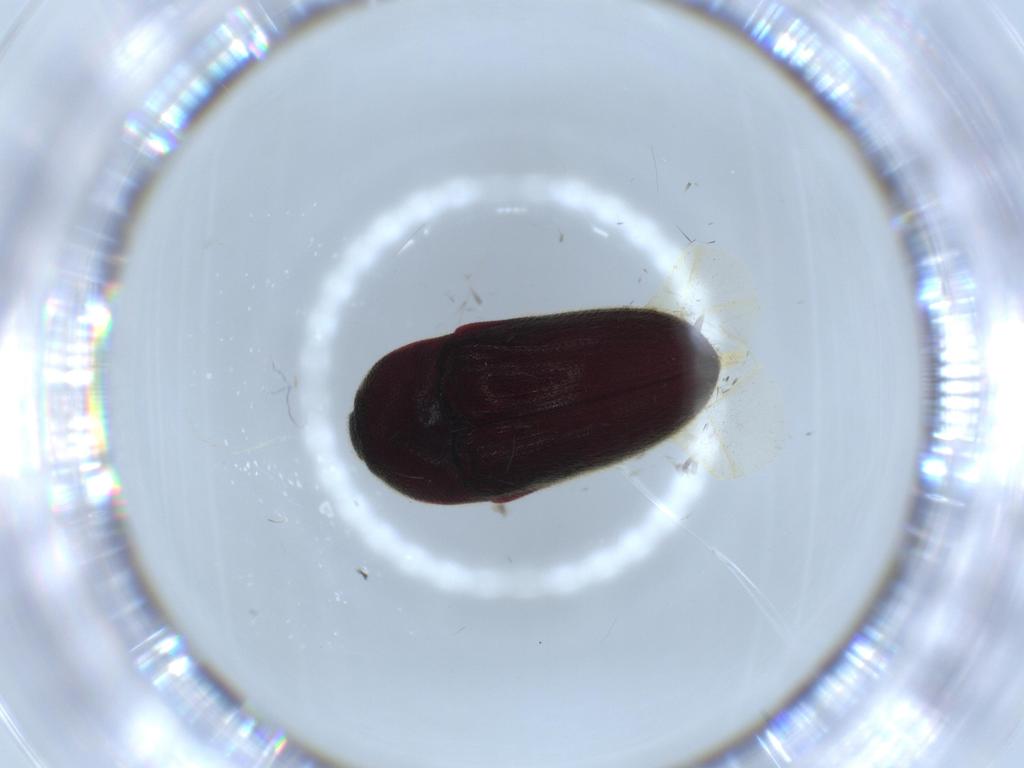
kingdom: Animalia
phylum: Arthropoda
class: Insecta
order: Coleoptera
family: Throscidae
